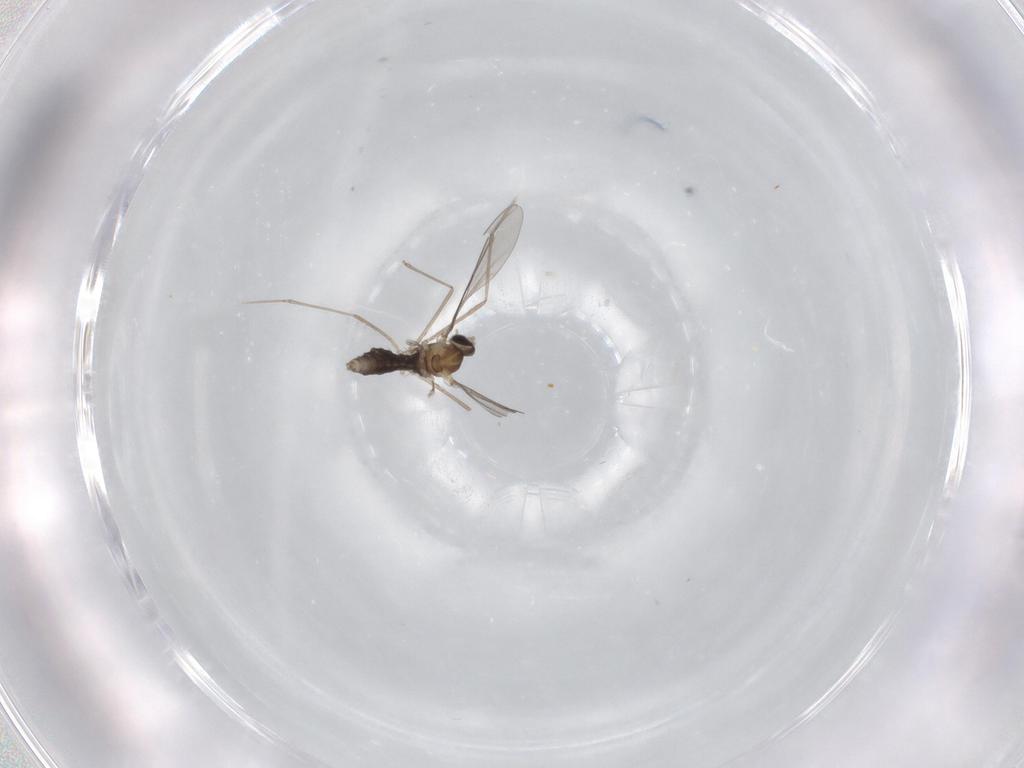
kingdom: Animalia
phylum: Arthropoda
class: Insecta
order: Diptera
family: Cecidomyiidae
